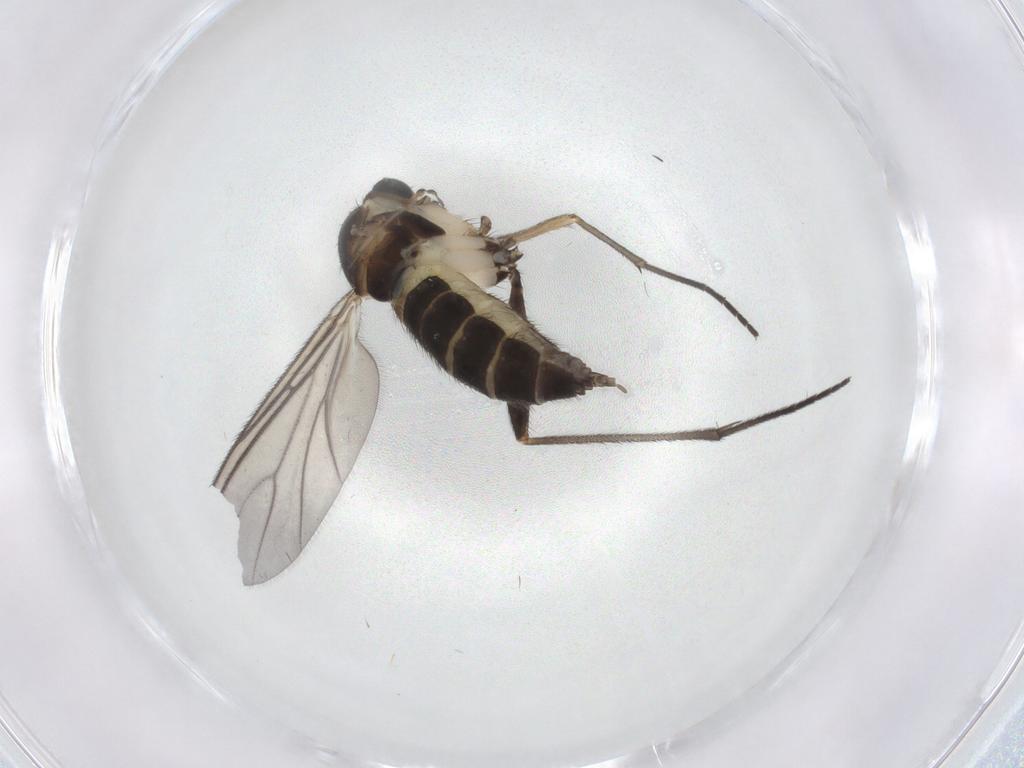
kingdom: Animalia
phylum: Arthropoda
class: Insecta
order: Diptera
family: Sciaridae
